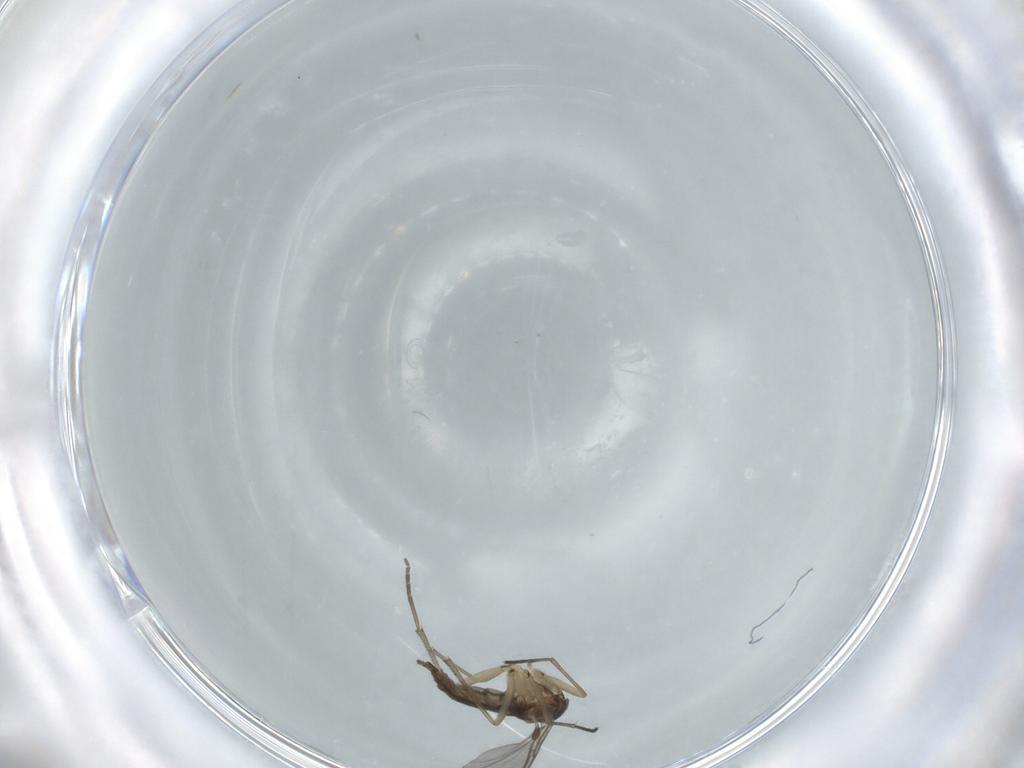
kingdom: Animalia
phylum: Arthropoda
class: Insecta
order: Diptera
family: Sciaridae
